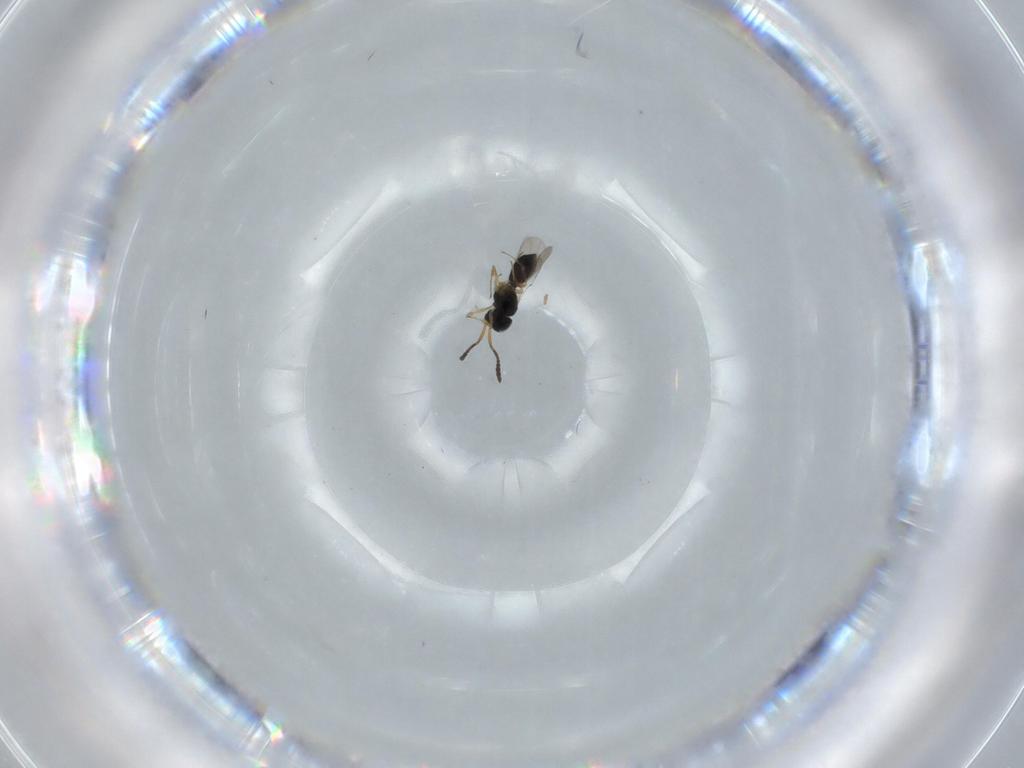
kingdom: Animalia
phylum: Arthropoda
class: Insecta
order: Hymenoptera
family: Scelionidae
